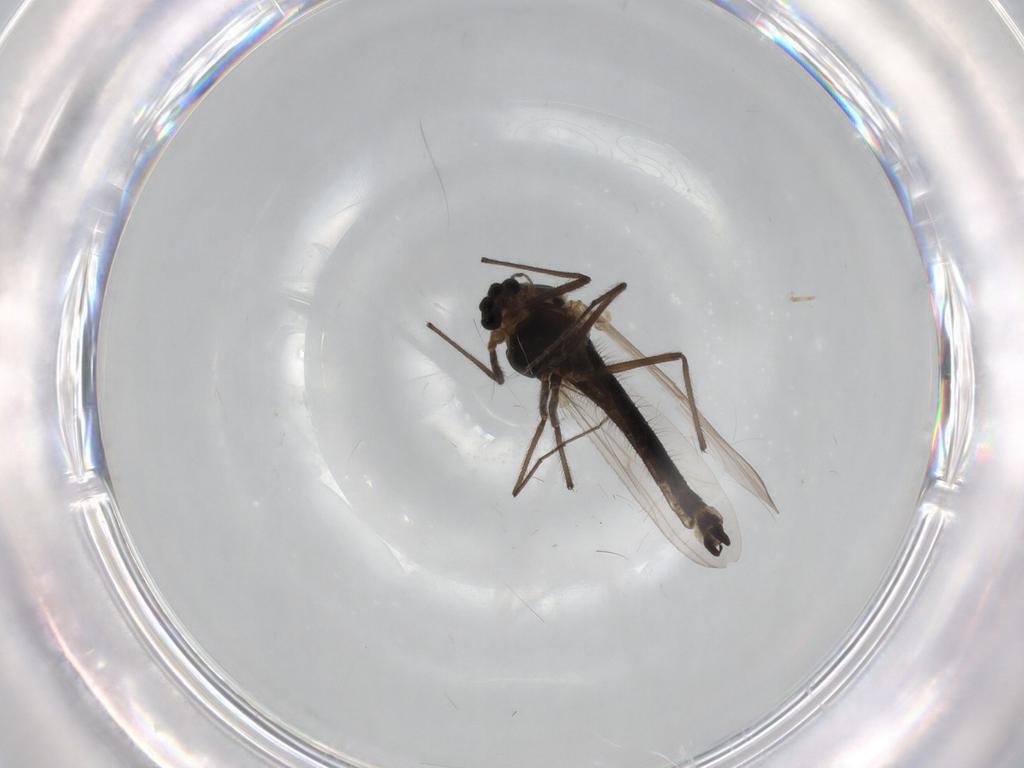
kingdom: Animalia
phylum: Arthropoda
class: Insecta
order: Diptera
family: Chironomidae
